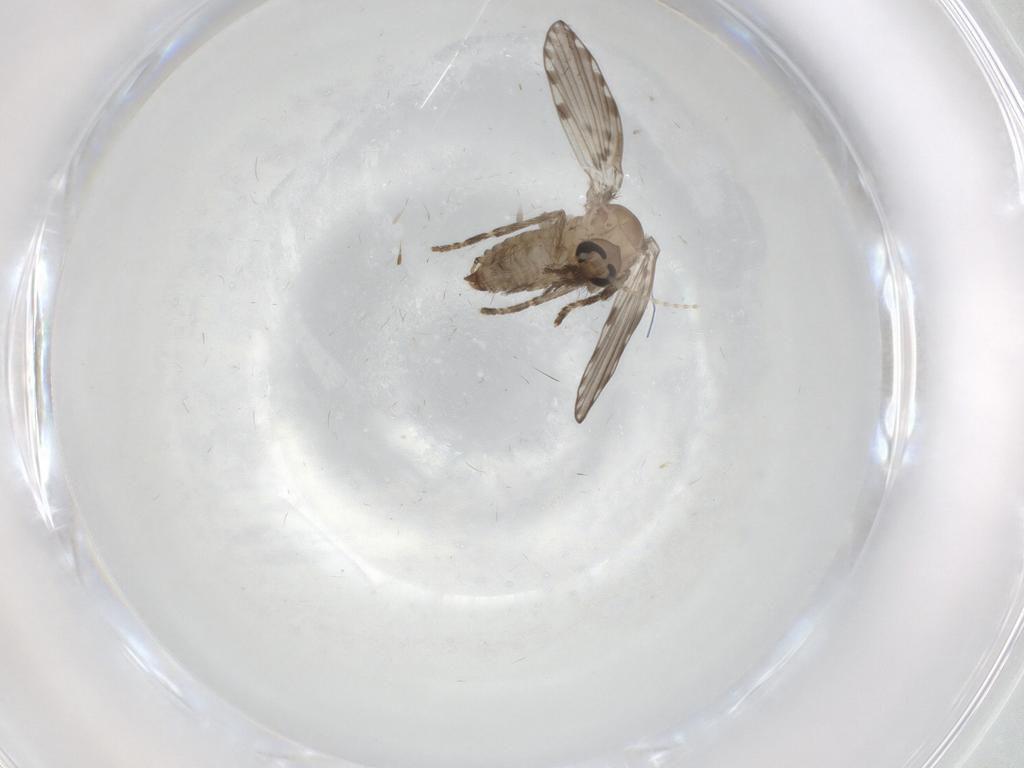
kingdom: Animalia
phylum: Arthropoda
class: Insecta
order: Diptera
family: Psychodidae
